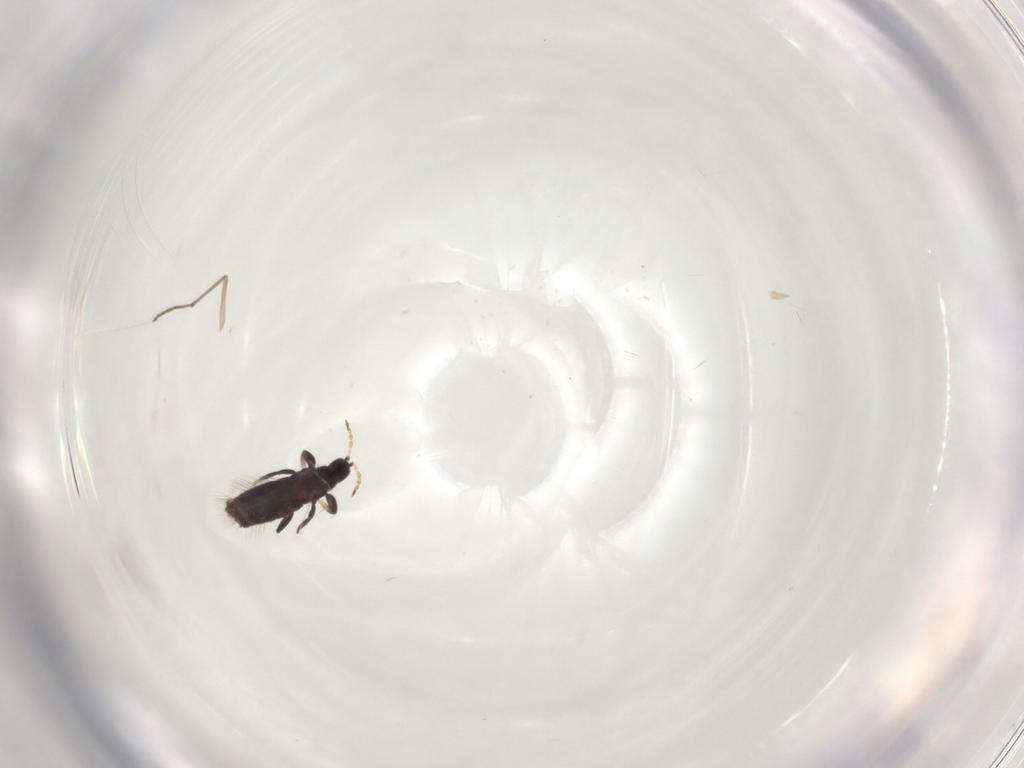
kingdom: Animalia
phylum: Arthropoda
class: Insecta
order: Thysanoptera
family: Phlaeothripidae
